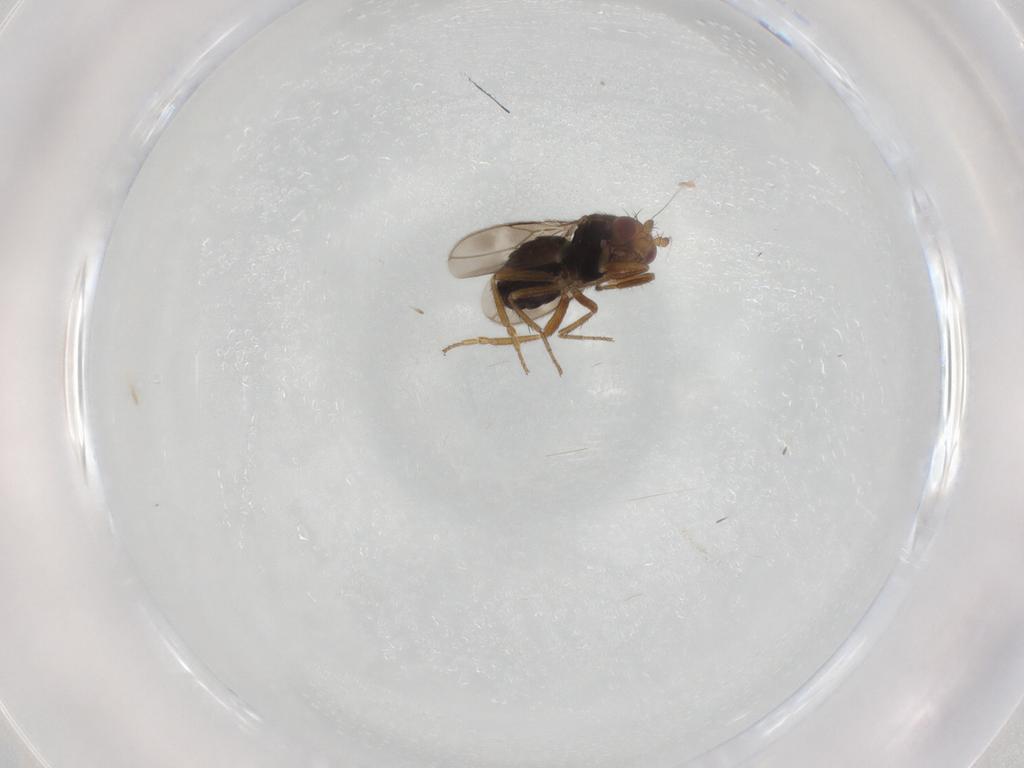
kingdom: Animalia
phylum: Arthropoda
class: Insecta
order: Diptera
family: Sphaeroceridae
